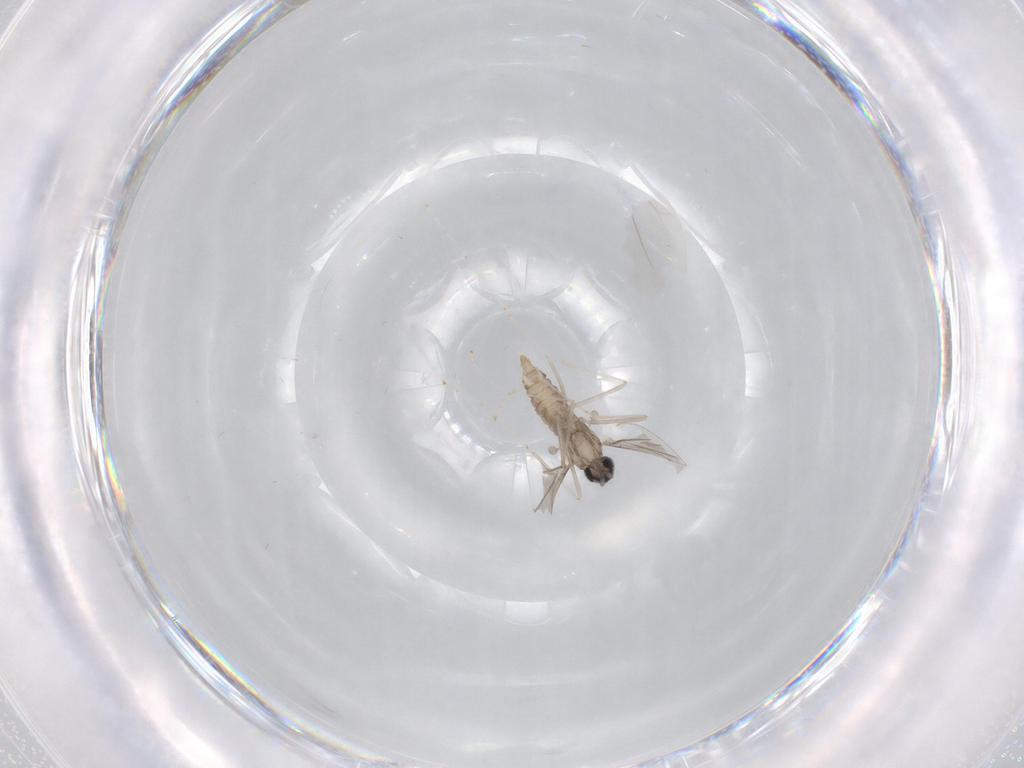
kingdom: Animalia
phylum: Arthropoda
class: Insecta
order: Diptera
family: Cecidomyiidae
